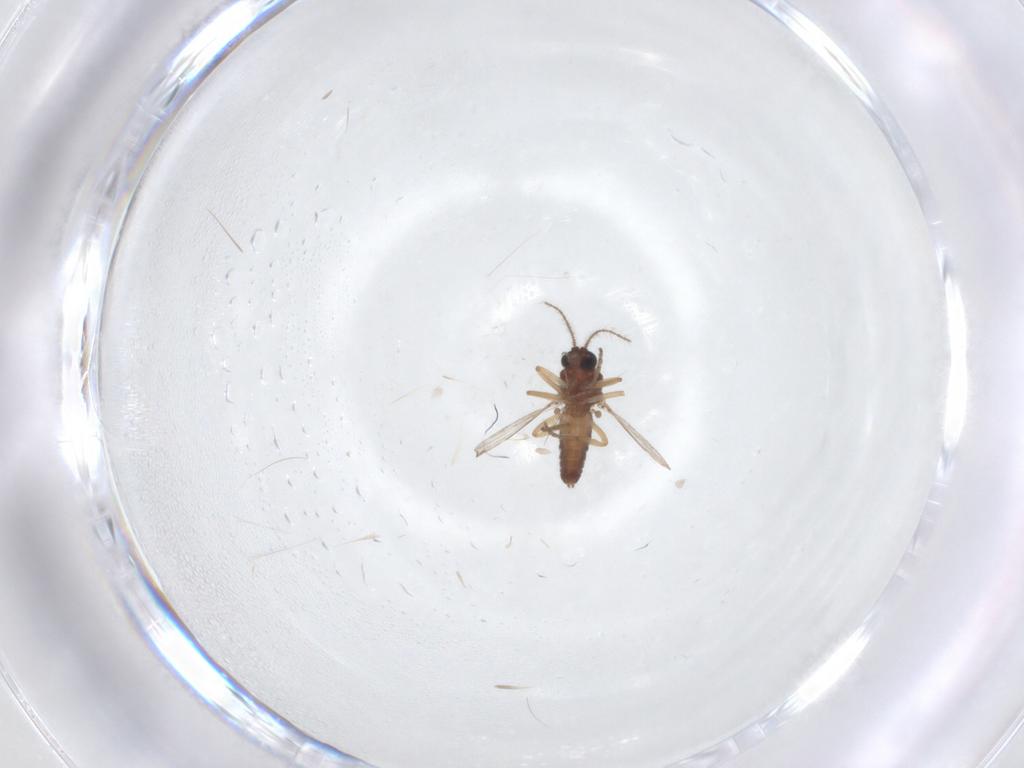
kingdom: Animalia
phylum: Arthropoda
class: Insecta
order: Diptera
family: Ceratopogonidae
